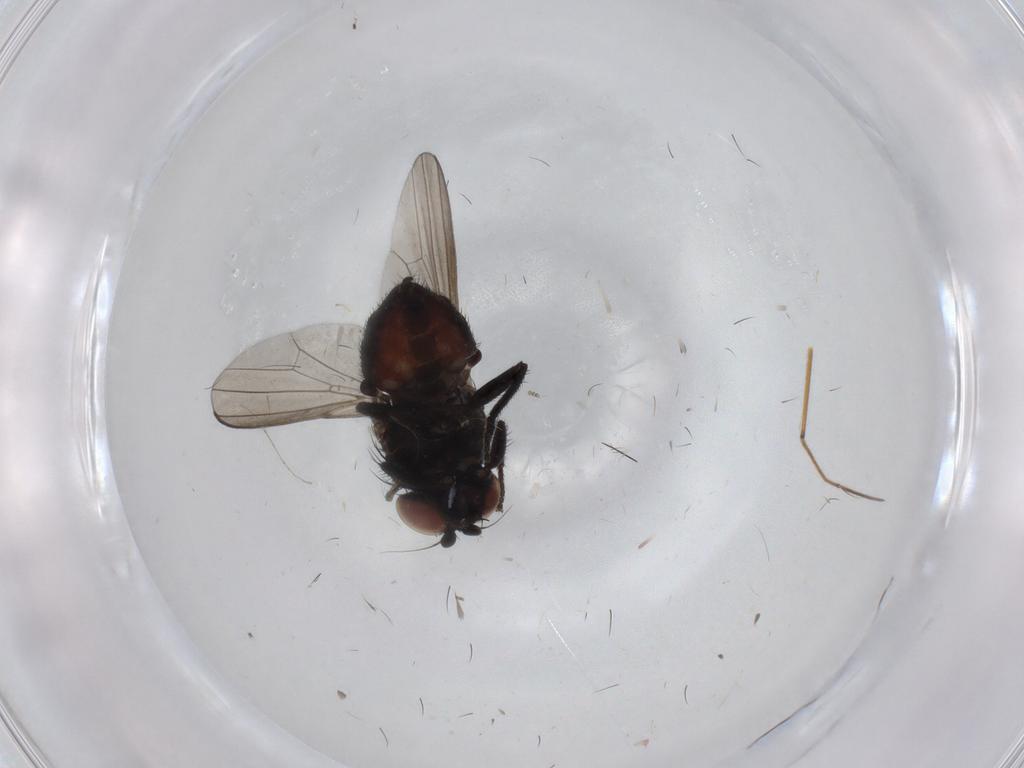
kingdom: Animalia
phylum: Arthropoda
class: Insecta
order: Diptera
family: Milichiidae
